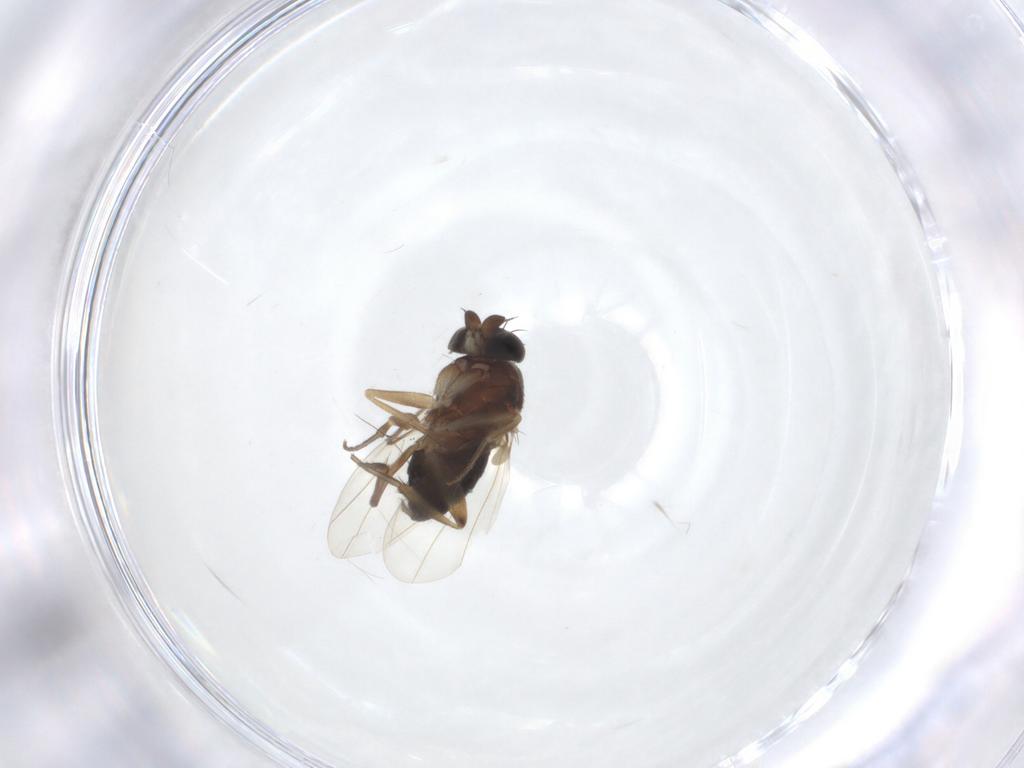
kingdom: Animalia
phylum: Arthropoda
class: Insecta
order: Diptera
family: Phoridae
